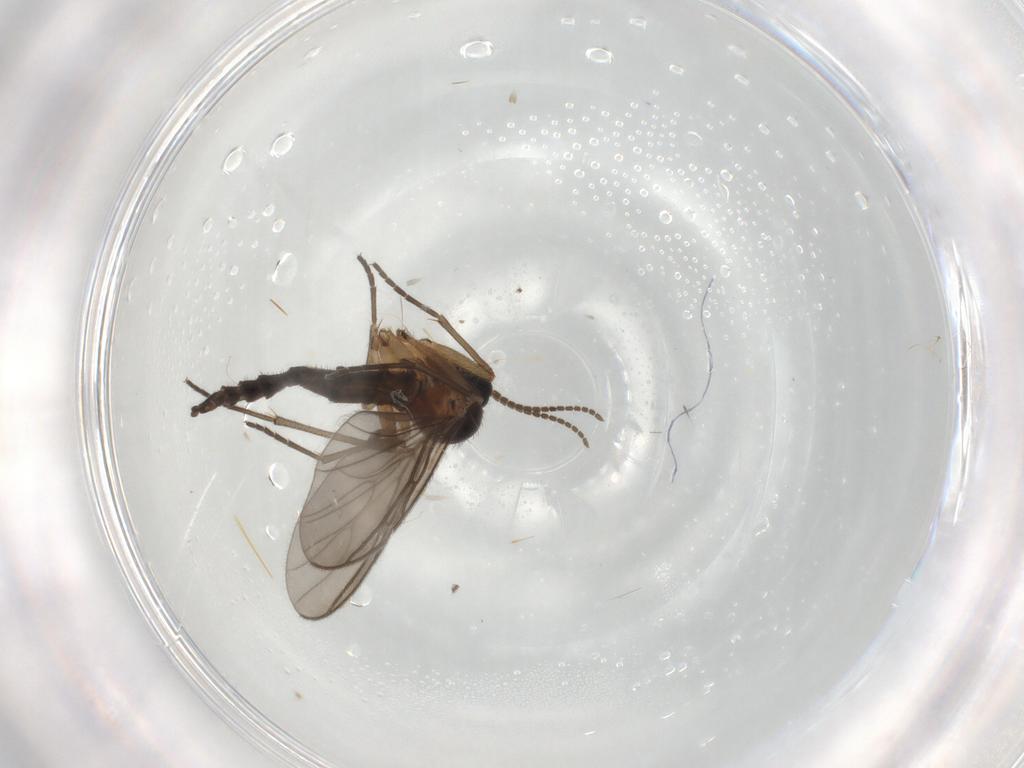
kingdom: Animalia
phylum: Arthropoda
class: Insecta
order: Diptera
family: Sciaridae
